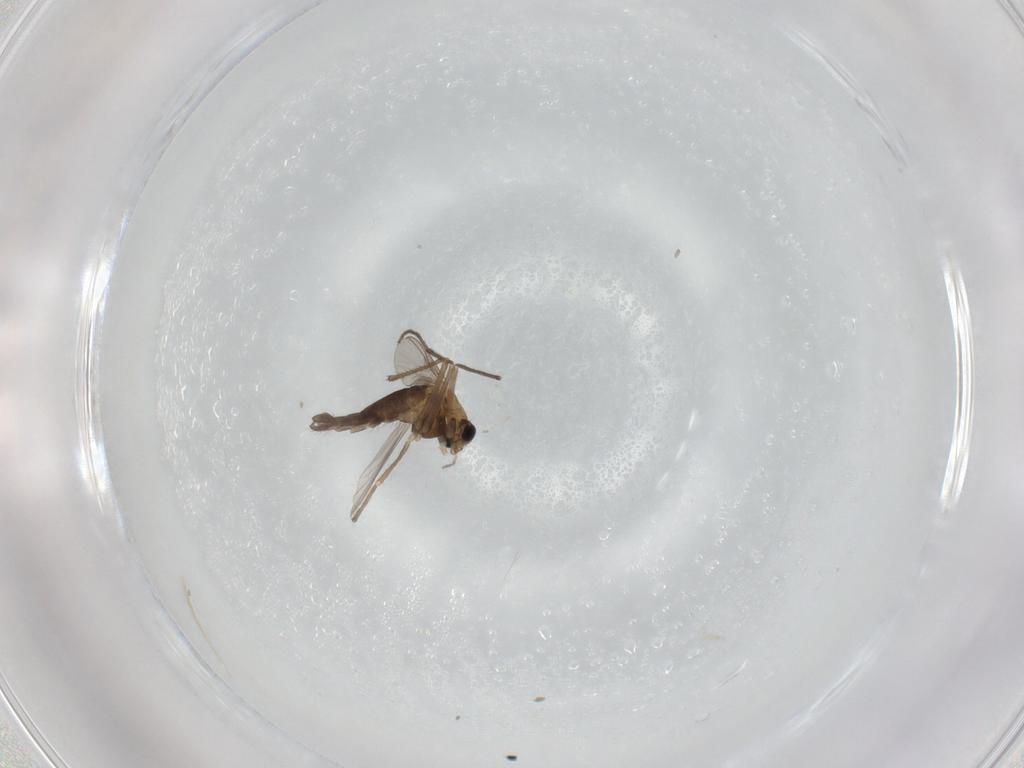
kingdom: Animalia
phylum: Arthropoda
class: Insecta
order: Diptera
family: Chironomidae
